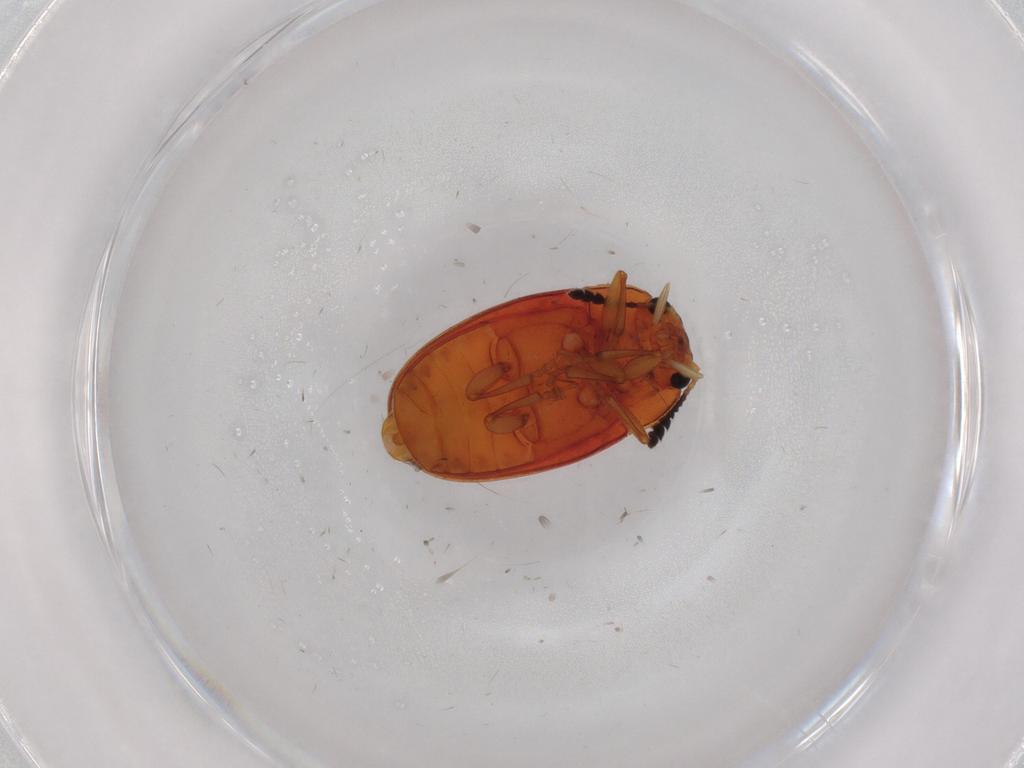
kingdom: Animalia
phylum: Arthropoda
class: Insecta
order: Coleoptera
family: Erotylidae
